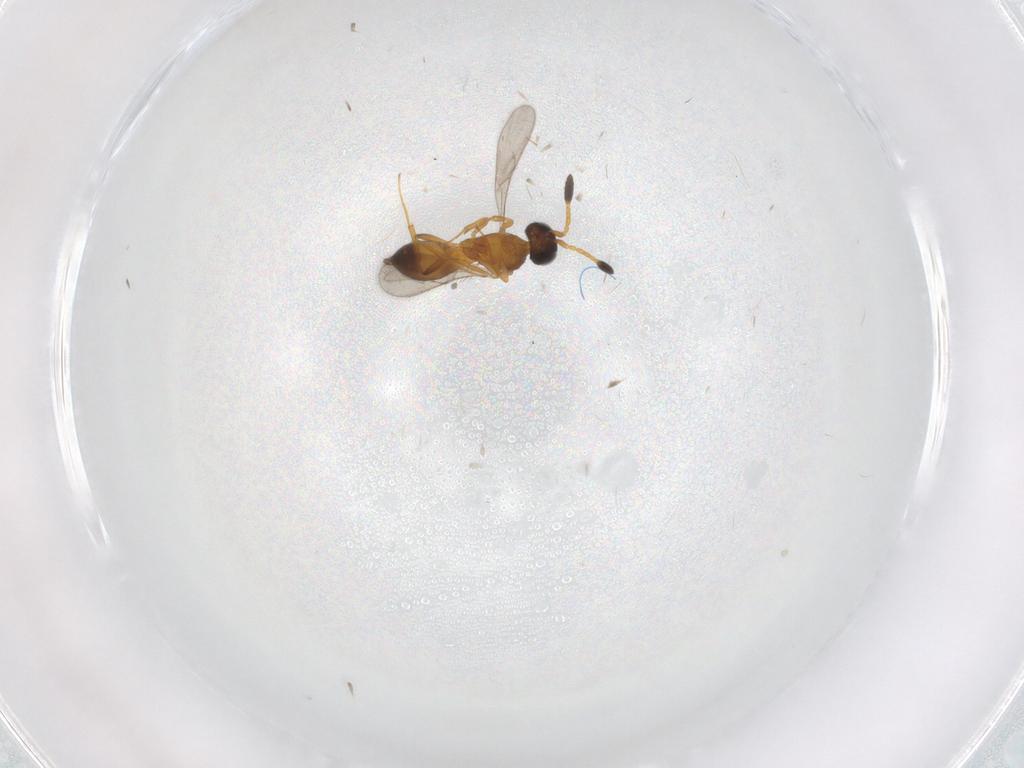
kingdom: Animalia
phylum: Arthropoda
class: Insecta
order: Hymenoptera
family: Scelionidae
